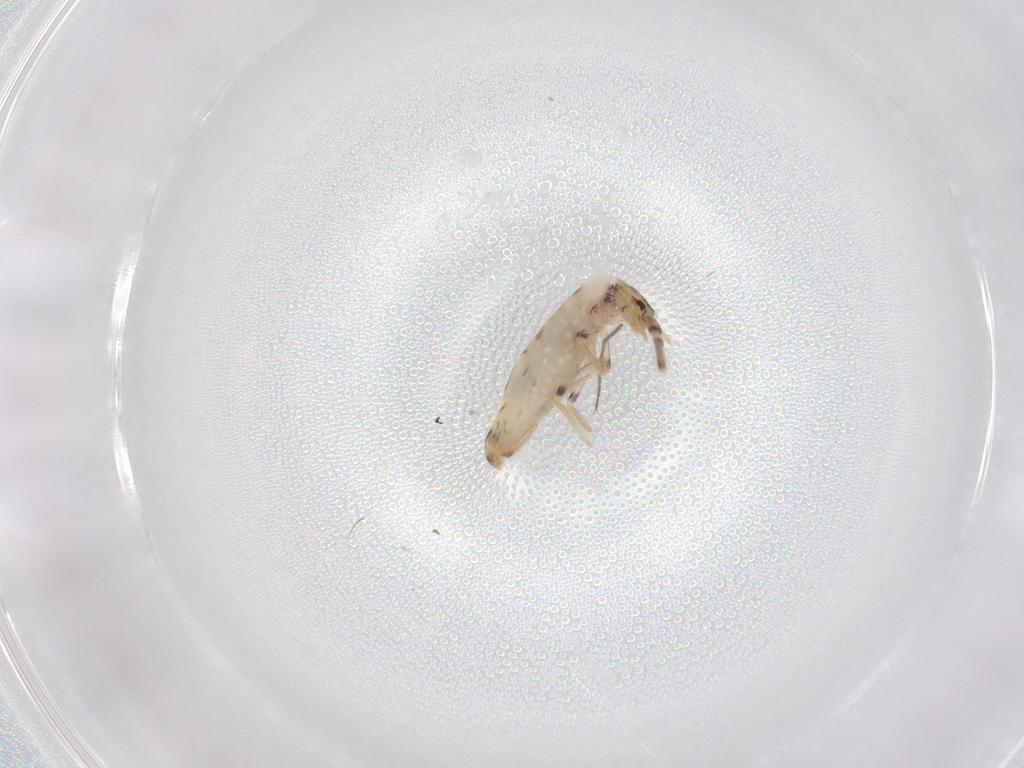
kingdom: Animalia
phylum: Arthropoda
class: Collembola
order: Entomobryomorpha
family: Entomobryidae
